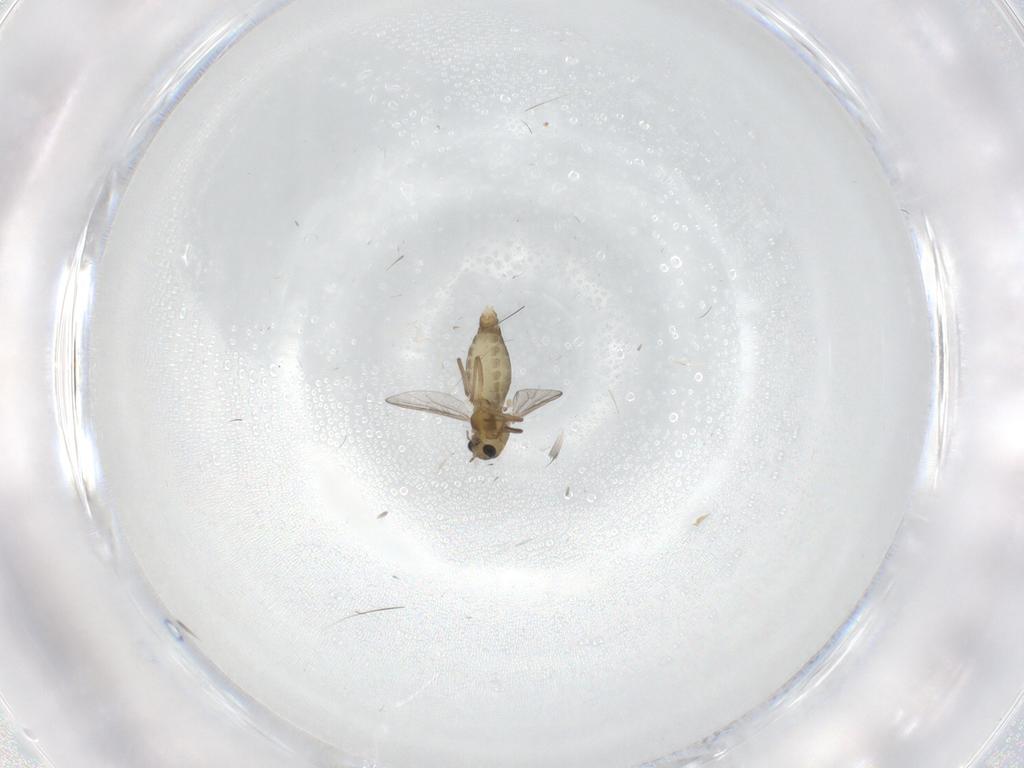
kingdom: Animalia
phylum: Arthropoda
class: Insecta
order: Diptera
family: Chironomidae
